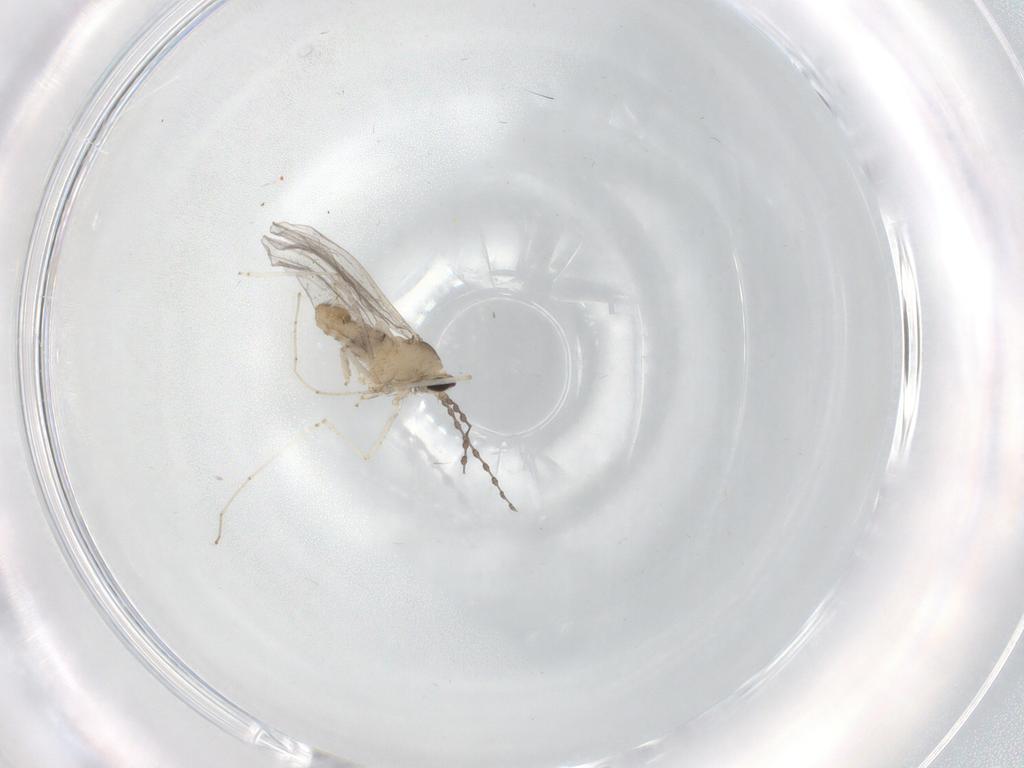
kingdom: Animalia
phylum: Arthropoda
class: Insecta
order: Diptera
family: Cecidomyiidae
